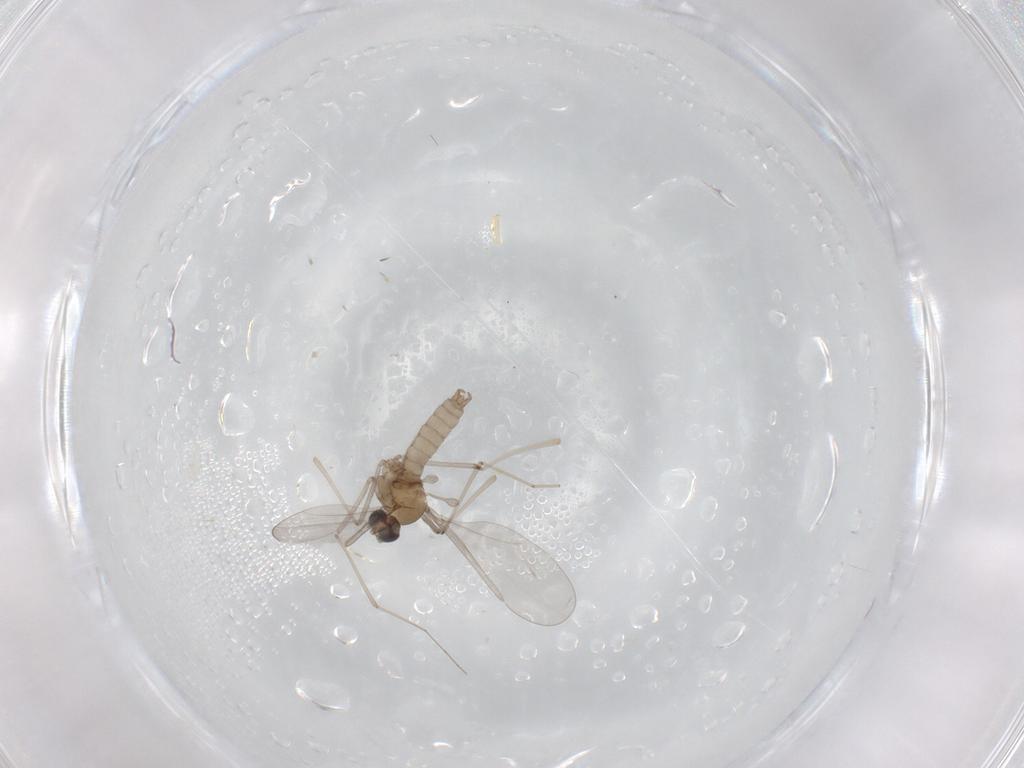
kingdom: Animalia
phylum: Arthropoda
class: Insecta
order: Diptera
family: Cecidomyiidae
